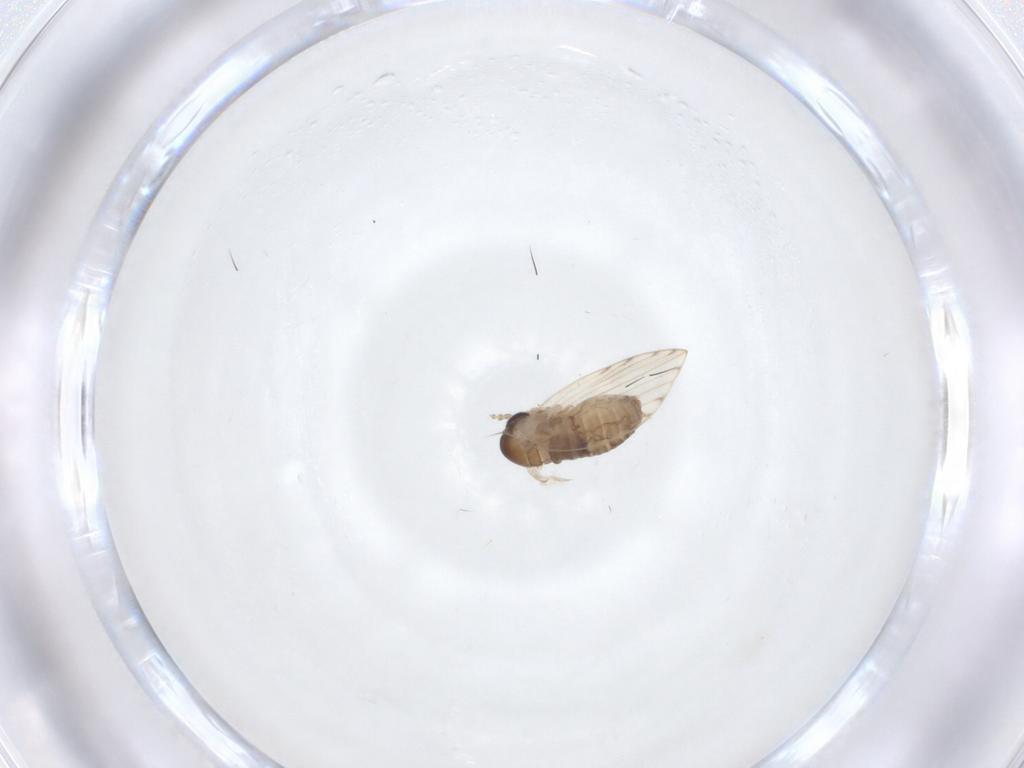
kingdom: Animalia
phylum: Arthropoda
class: Insecta
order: Diptera
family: Psychodidae
